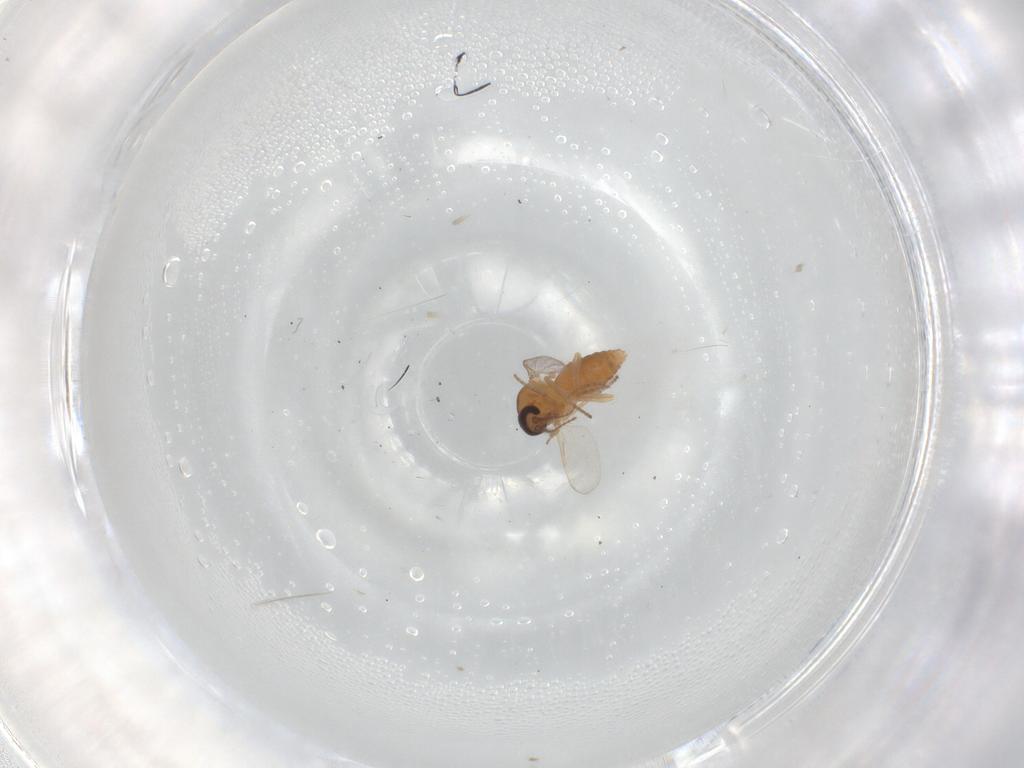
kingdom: Animalia
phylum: Arthropoda
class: Insecta
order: Diptera
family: Ceratopogonidae
